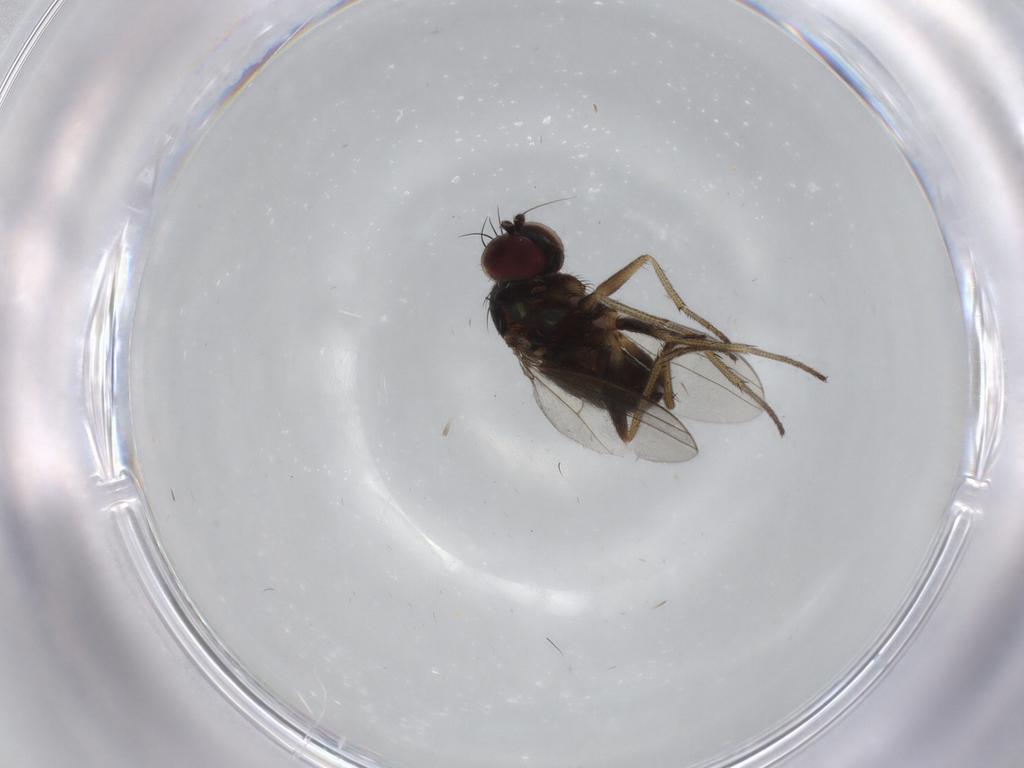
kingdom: Animalia
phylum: Arthropoda
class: Insecta
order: Diptera
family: Dolichopodidae
